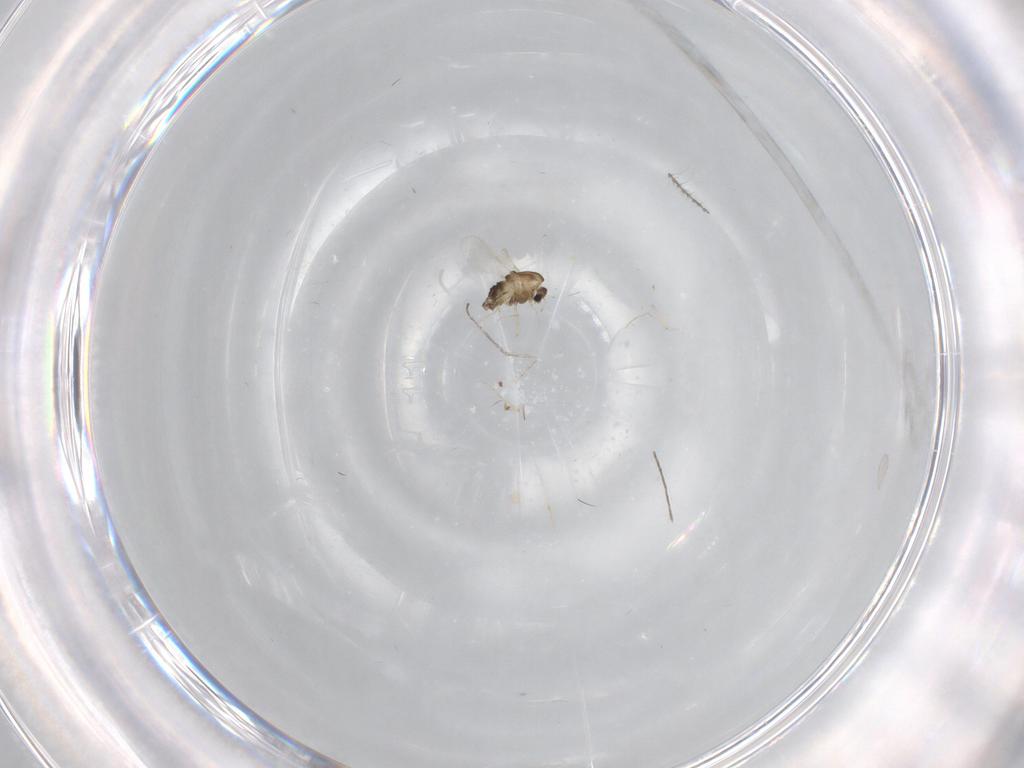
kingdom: Animalia
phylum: Arthropoda
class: Insecta
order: Diptera
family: Chironomidae
